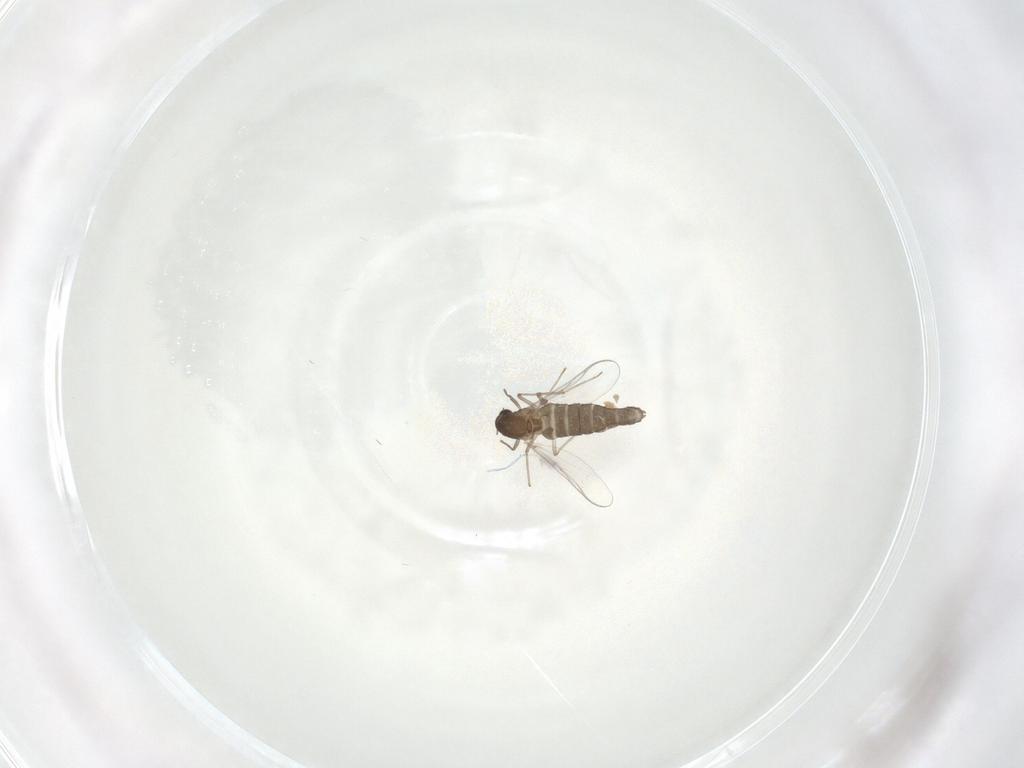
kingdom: Animalia
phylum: Arthropoda
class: Insecta
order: Diptera
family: Chironomidae
